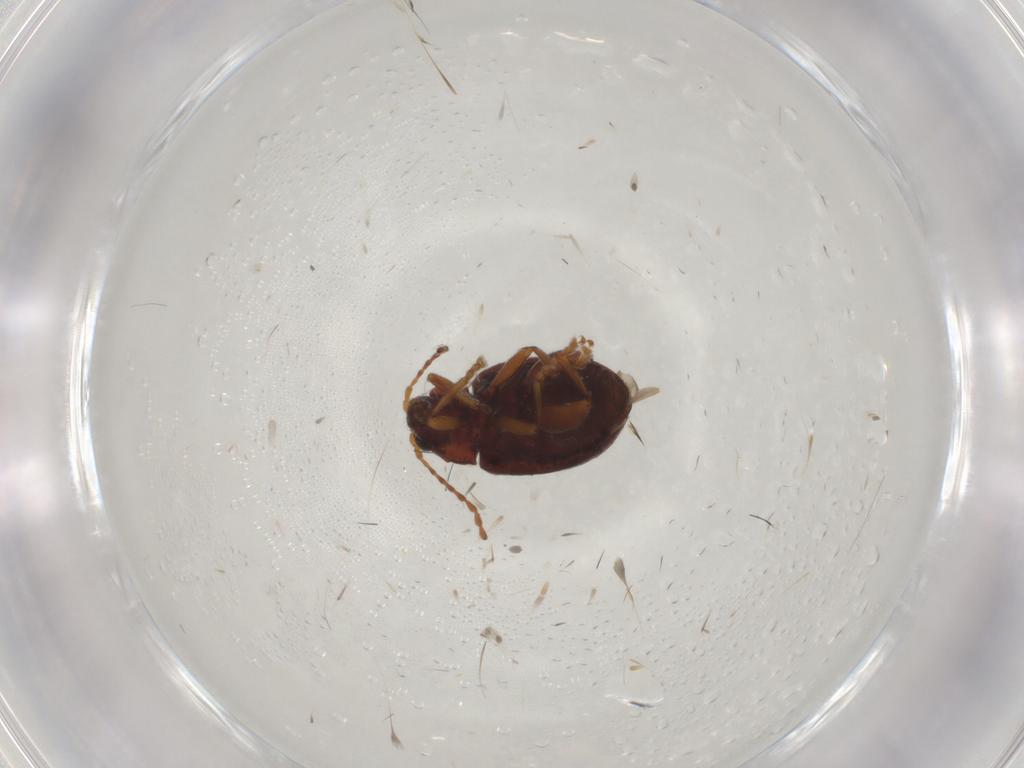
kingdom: Animalia
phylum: Arthropoda
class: Insecta
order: Coleoptera
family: Chrysomelidae
